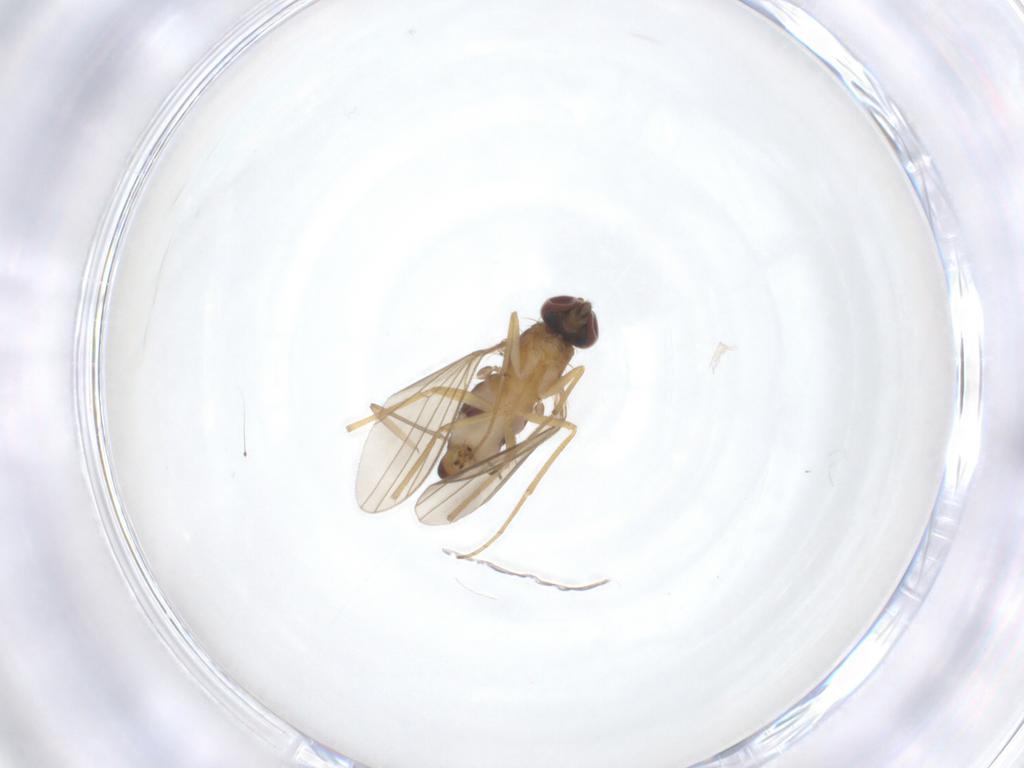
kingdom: Animalia
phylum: Arthropoda
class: Insecta
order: Diptera
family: Dolichopodidae
